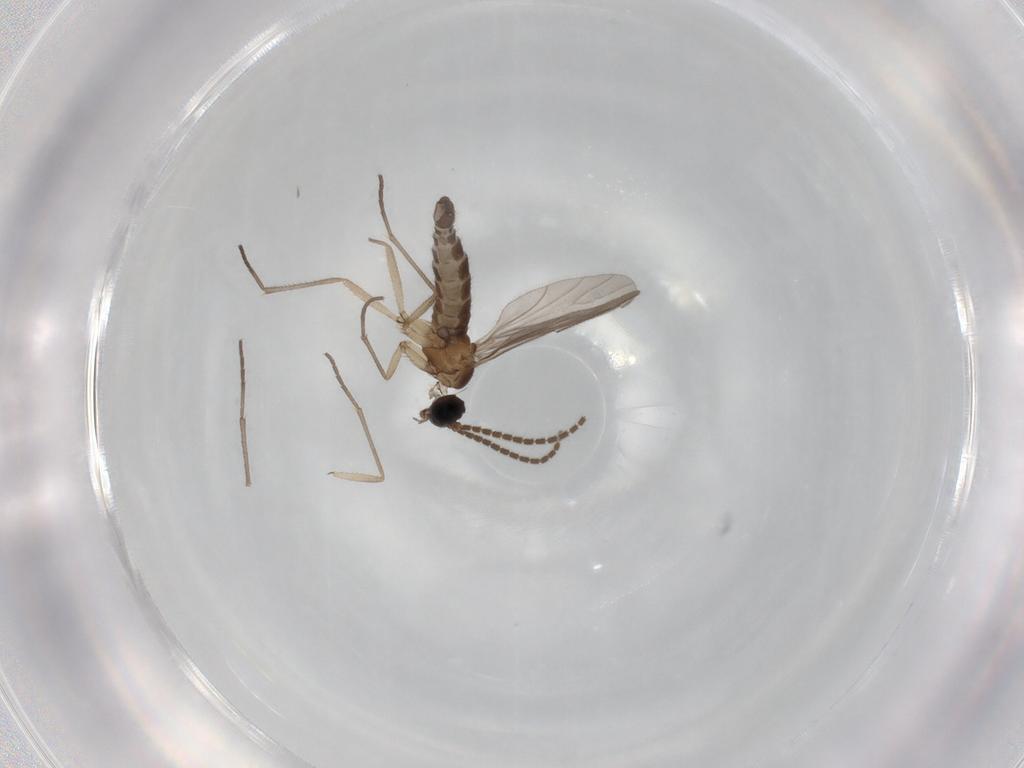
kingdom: Animalia
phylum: Arthropoda
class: Insecta
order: Diptera
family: Sciaridae
